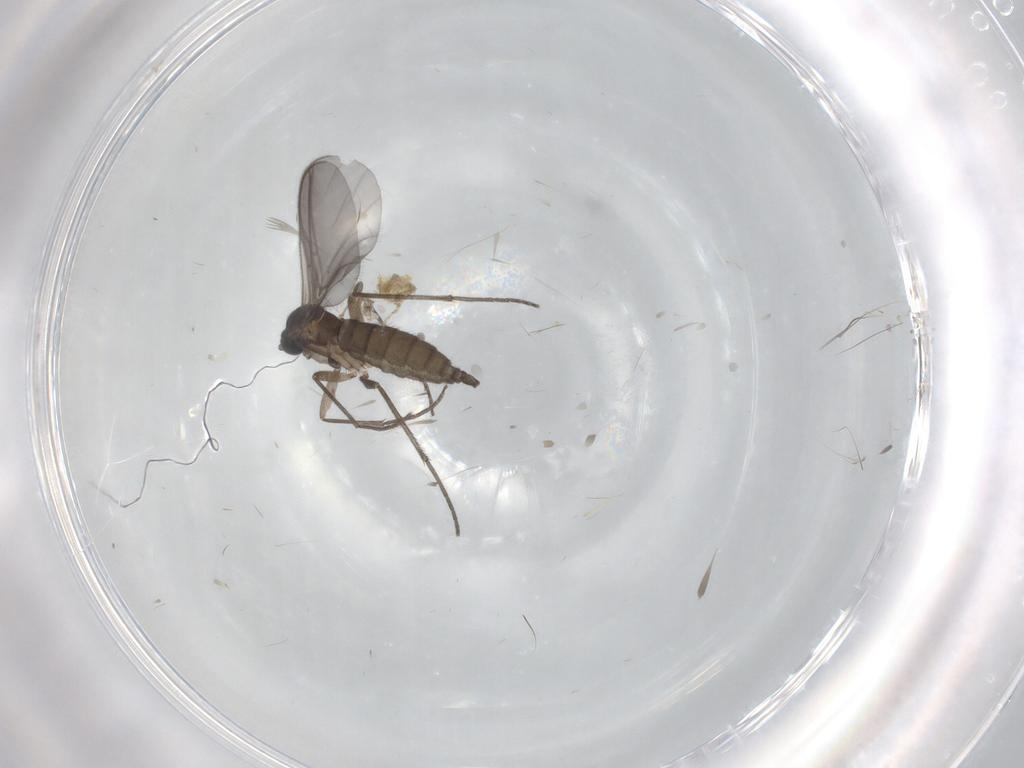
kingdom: Animalia
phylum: Arthropoda
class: Insecta
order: Diptera
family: Sciaridae
